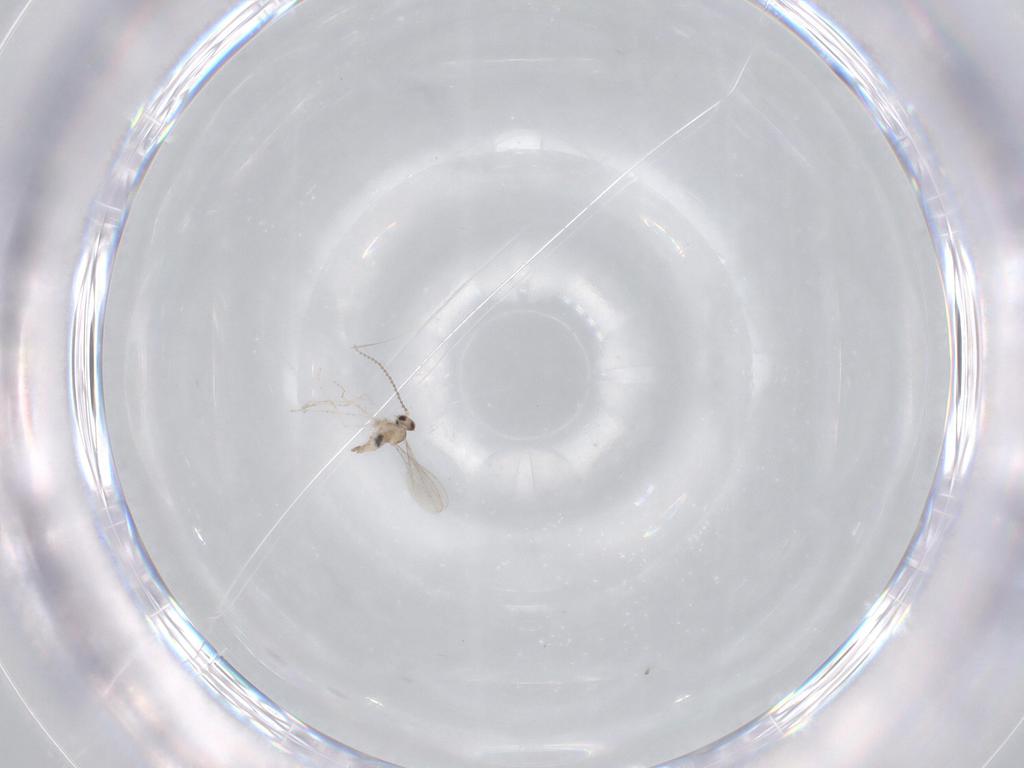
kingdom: Animalia
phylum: Arthropoda
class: Insecta
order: Diptera
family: Cecidomyiidae
